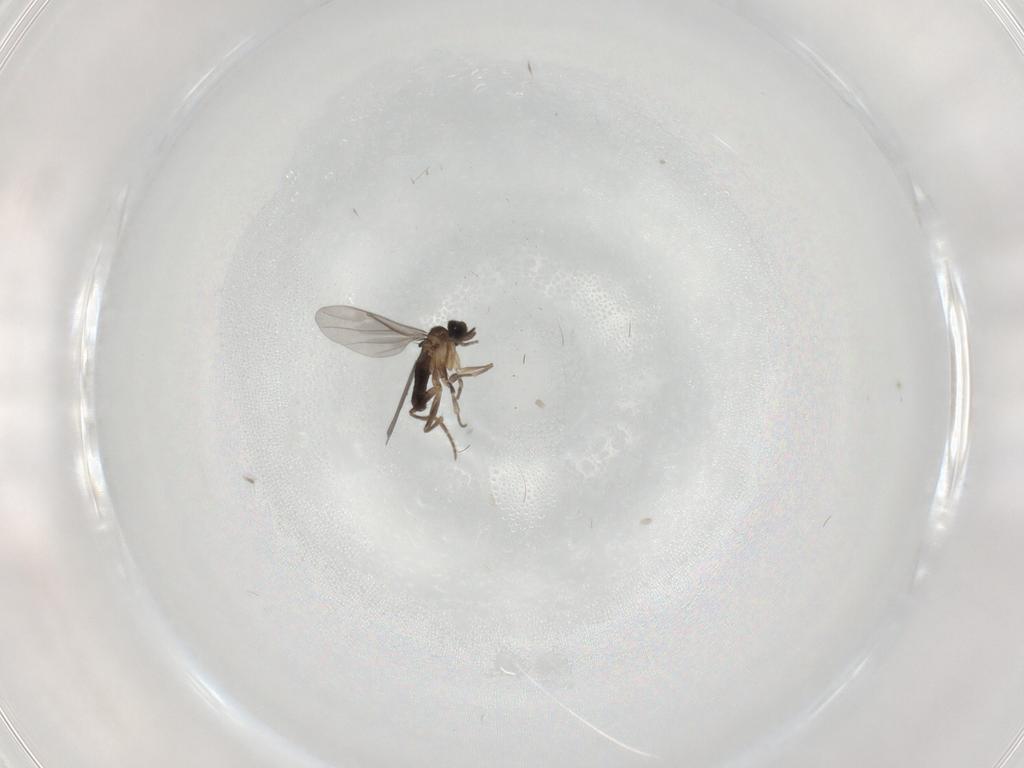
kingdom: Animalia
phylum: Arthropoda
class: Insecta
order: Diptera
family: Phoridae
